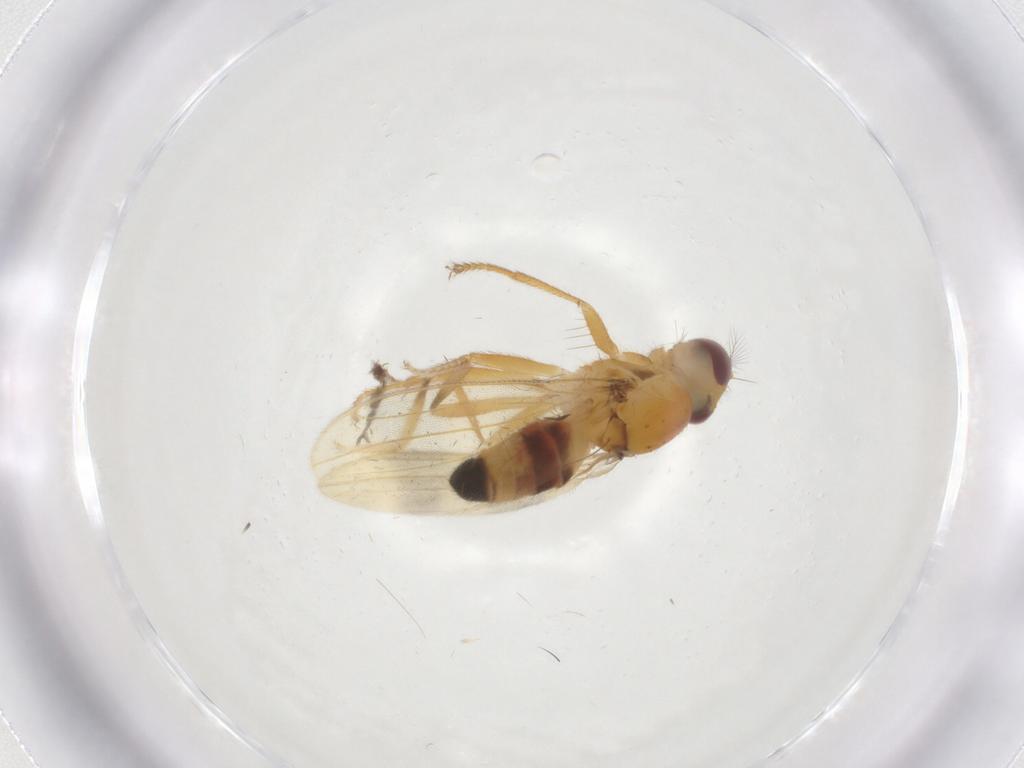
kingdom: Animalia
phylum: Arthropoda
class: Insecta
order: Diptera
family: Periscelididae
